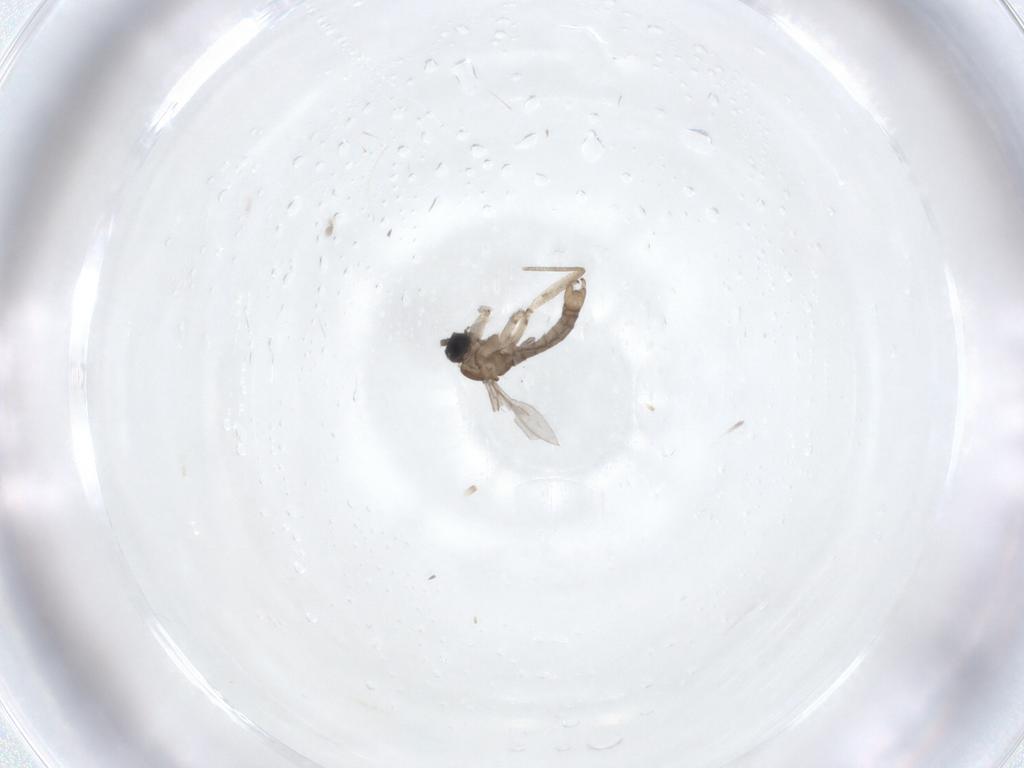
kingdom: Animalia
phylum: Arthropoda
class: Insecta
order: Diptera
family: Sciaridae
